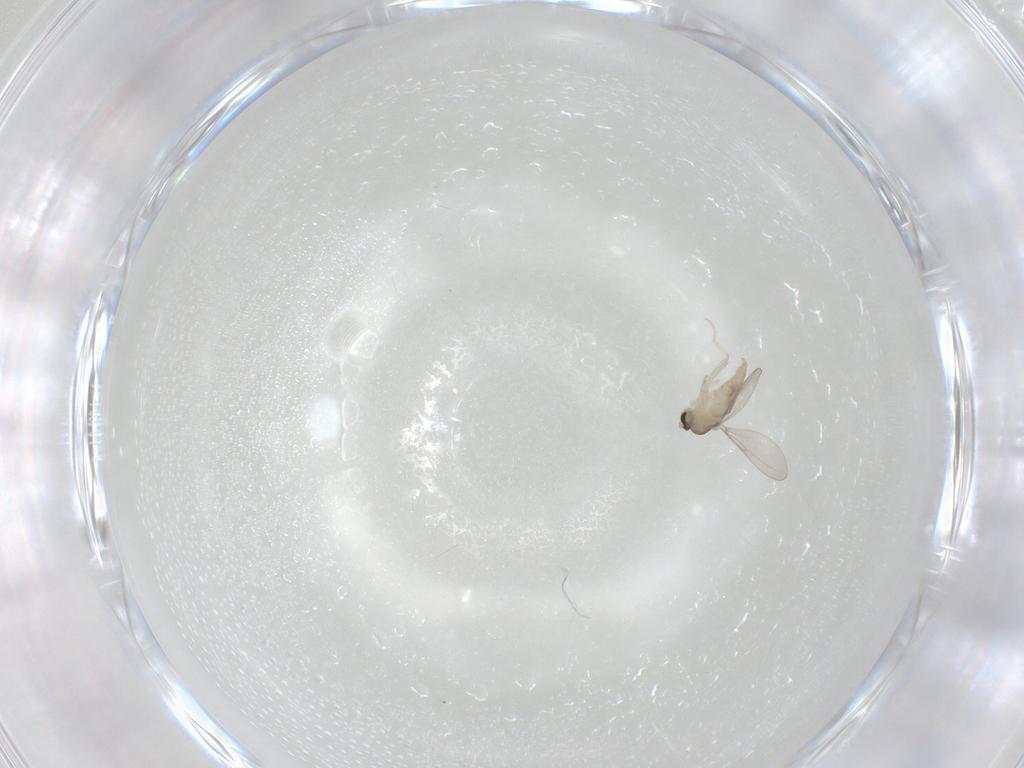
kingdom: Animalia
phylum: Arthropoda
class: Insecta
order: Diptera
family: Cecidomyiidae
